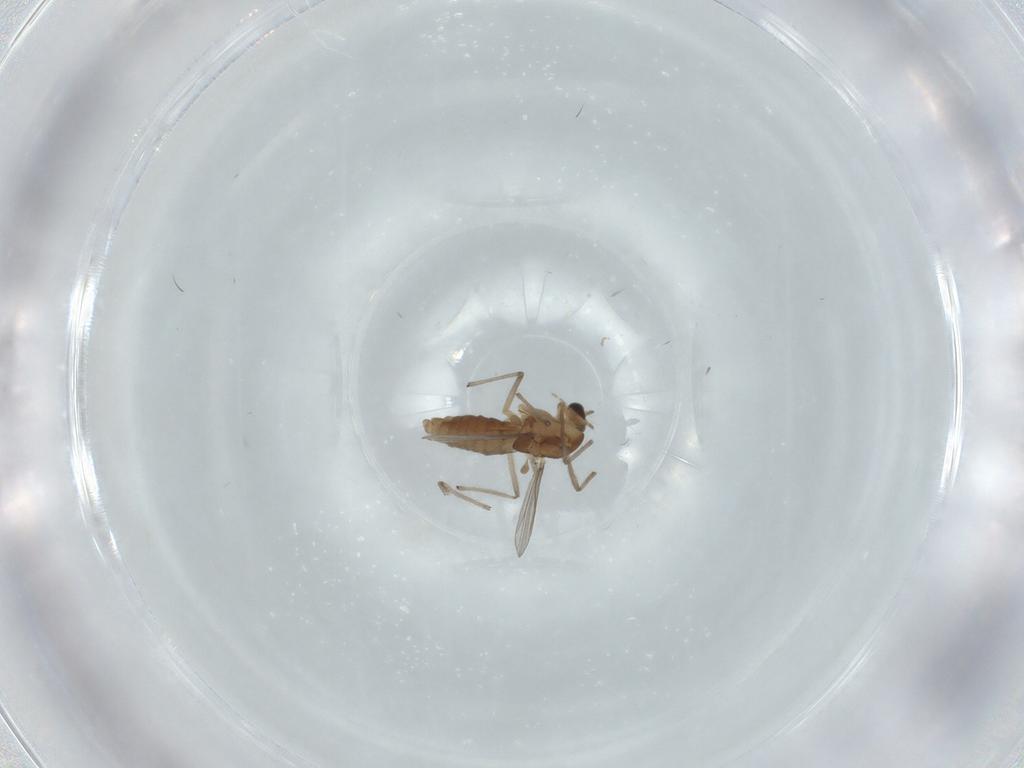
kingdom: Animalia
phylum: Arthropoda
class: Insecta
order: Diptera
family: Chironomidae
